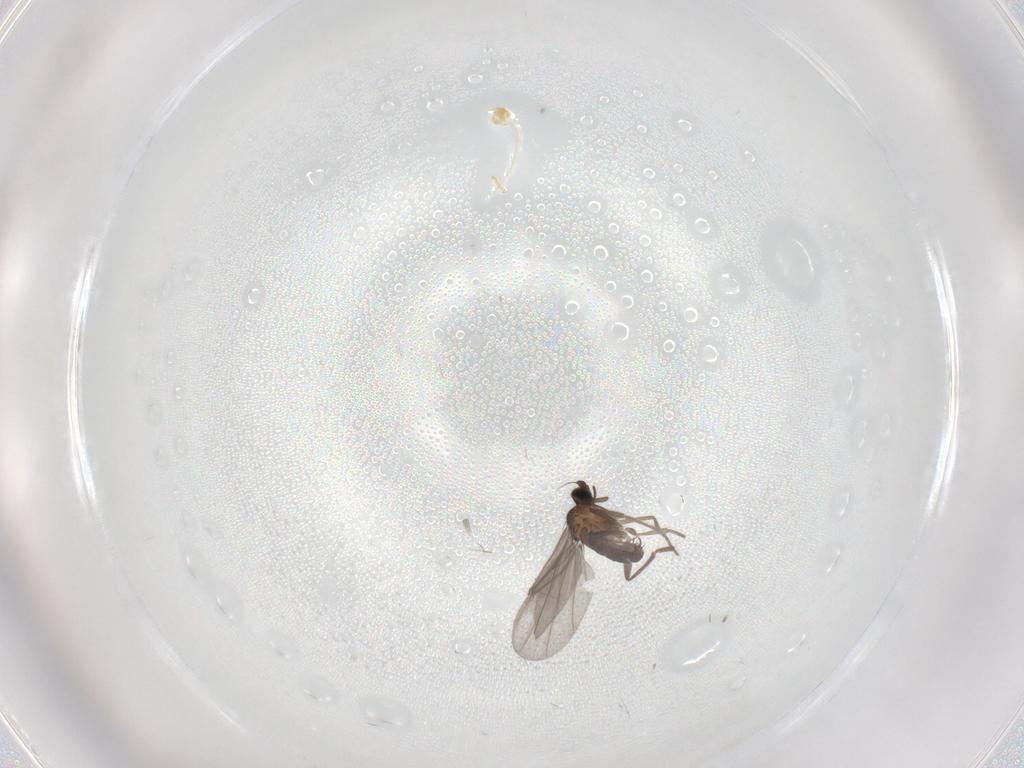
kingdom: Animalia
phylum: Arthropoda
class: Insecta
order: Diptera
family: Phoridae
